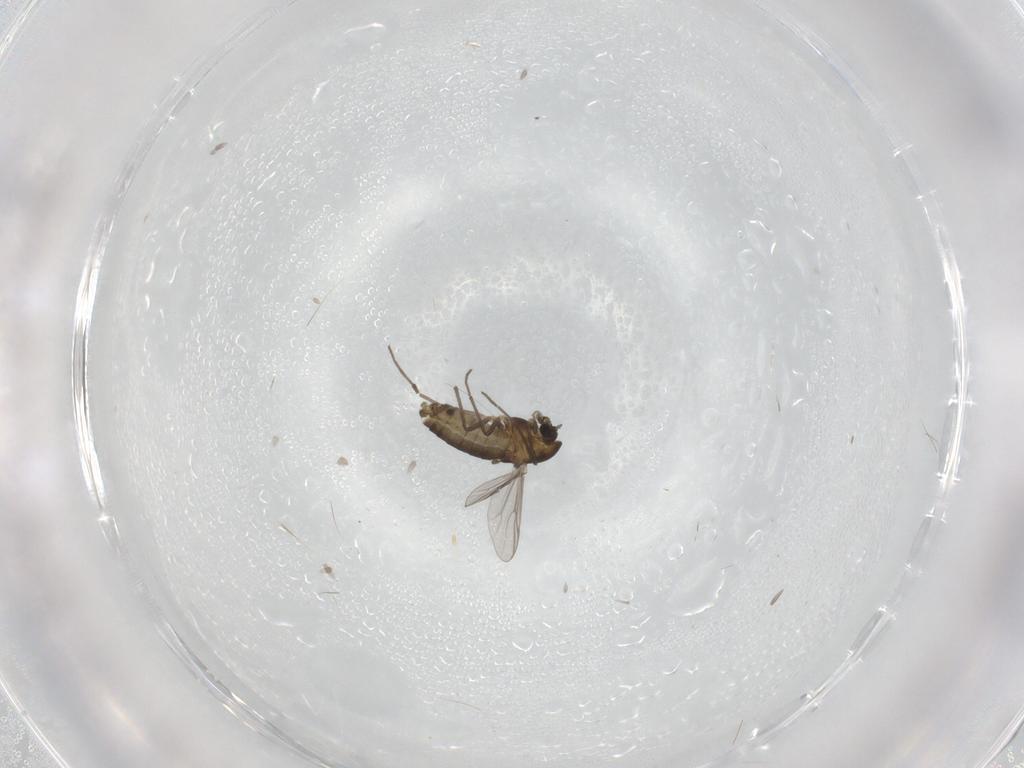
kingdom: Animalia
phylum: Arthropoda
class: Insecta
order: Diptera
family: Chironomidae
